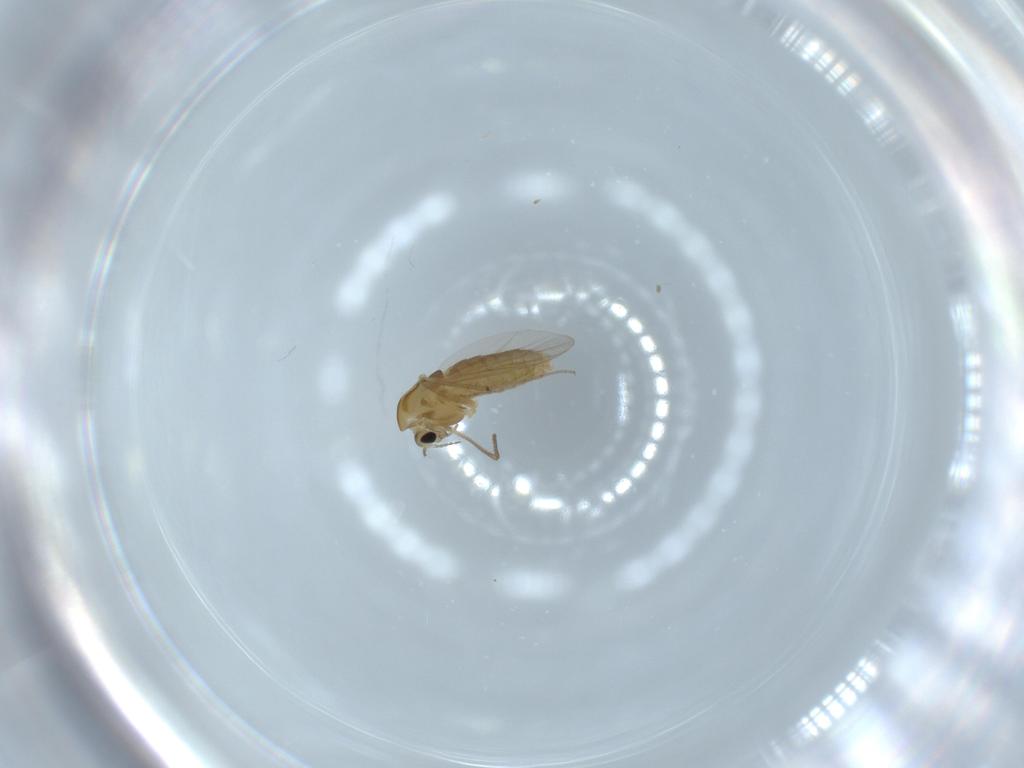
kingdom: Animalia
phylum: Arthropoda
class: Insecta
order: Diptera
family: Chironomidae
